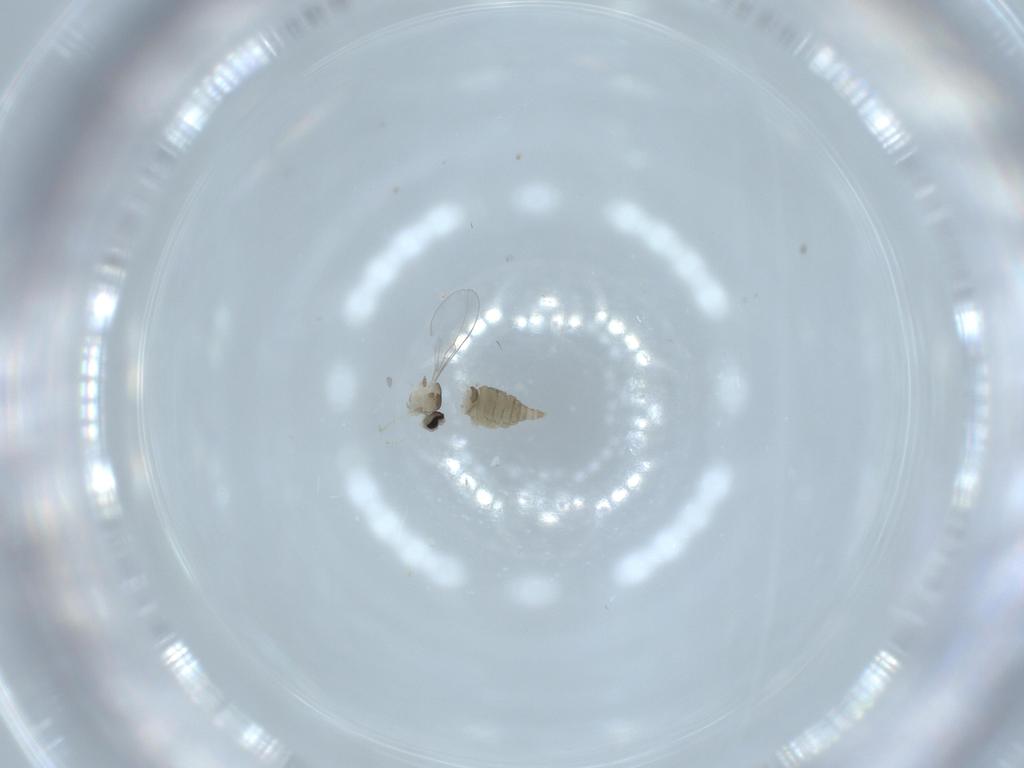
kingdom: Animalia
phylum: Arthropoda
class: Insecta
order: Diptera
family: Cecidomyiidae
